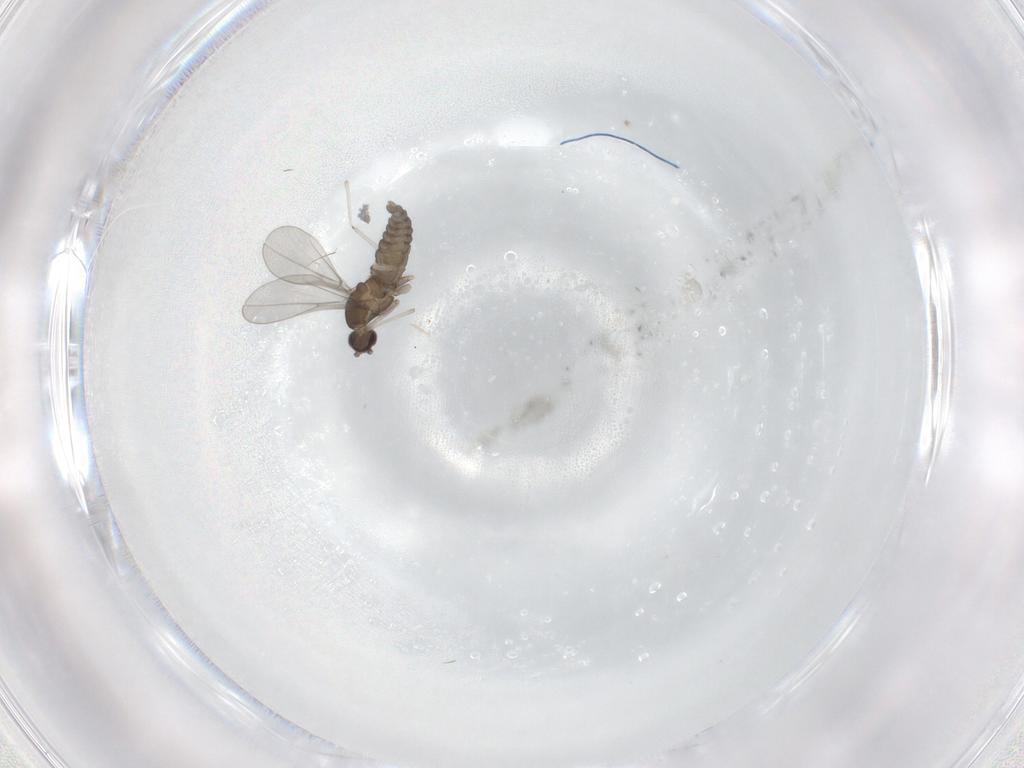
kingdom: Animalia
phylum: Arthropoda
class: Insecta
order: Diptera
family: Cecidomyiidae
